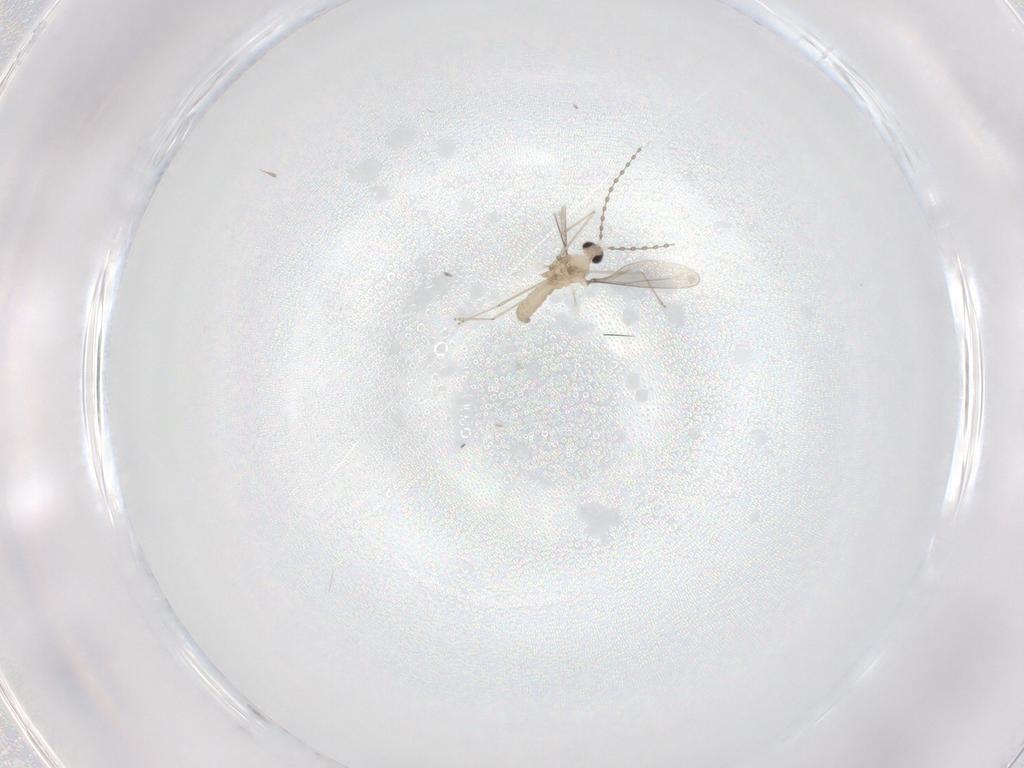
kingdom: Animalia
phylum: Arthropoda
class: Insecta
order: Diptera
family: Cecidomyiidae
